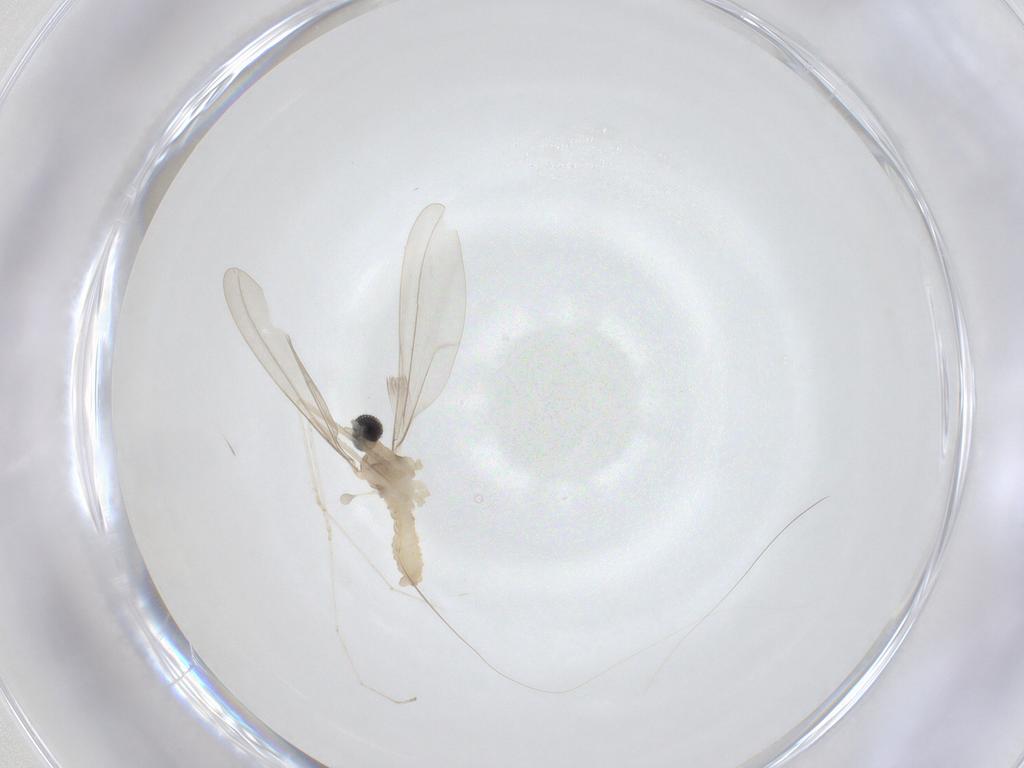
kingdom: Animalia
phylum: Arthropoda
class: Insecta
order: Diptera
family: Cecidomyiidae
